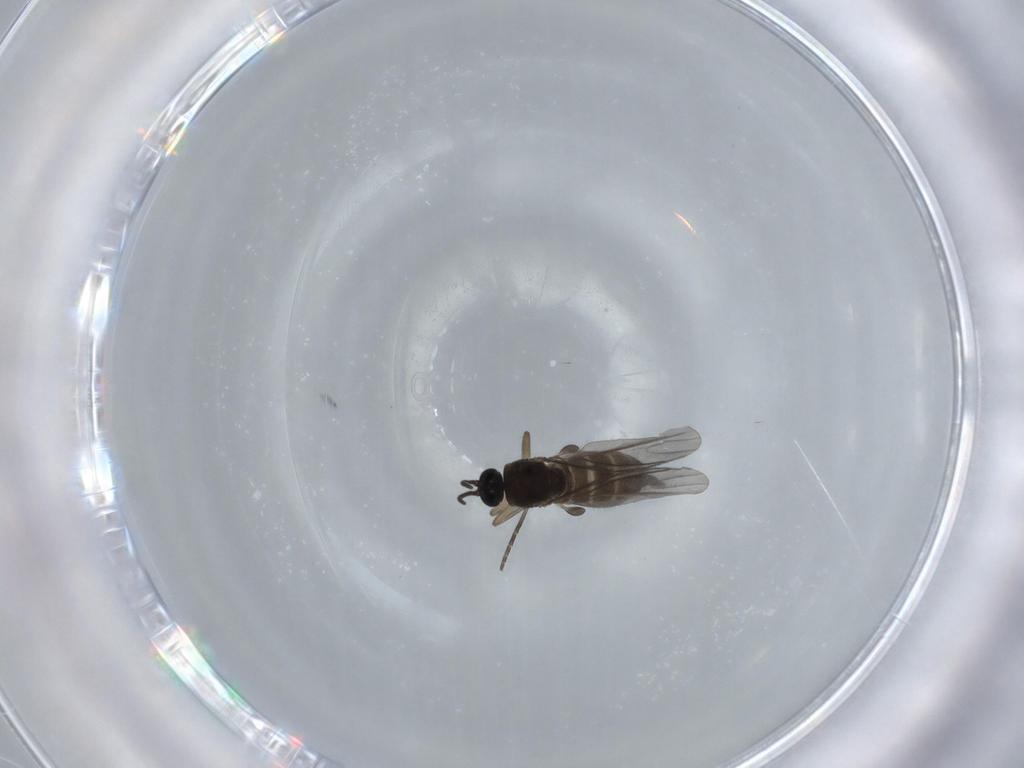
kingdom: Animalia
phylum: Arthropoda
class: Insecta
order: Diptera
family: Sciaridae
